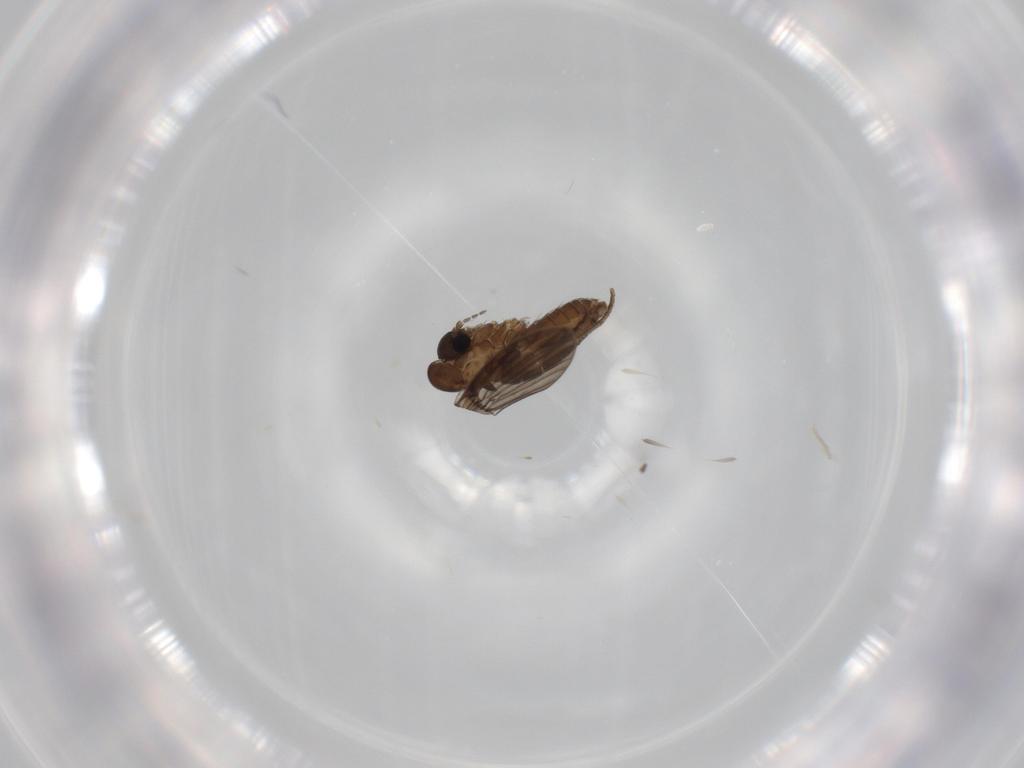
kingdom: Animalia
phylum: Arthropoda
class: Insecta
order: Diptera
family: Psychodidae
